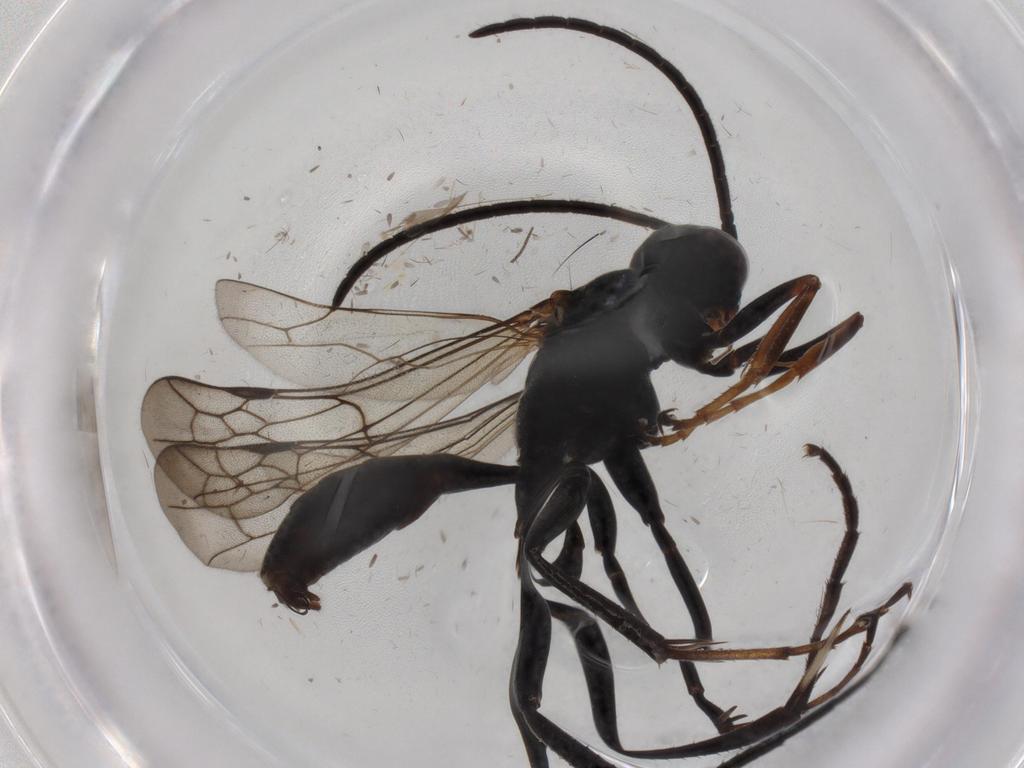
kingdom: Animalia
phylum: Arthropoda
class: Insecta
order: Hymenoptera
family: Pompilidae
